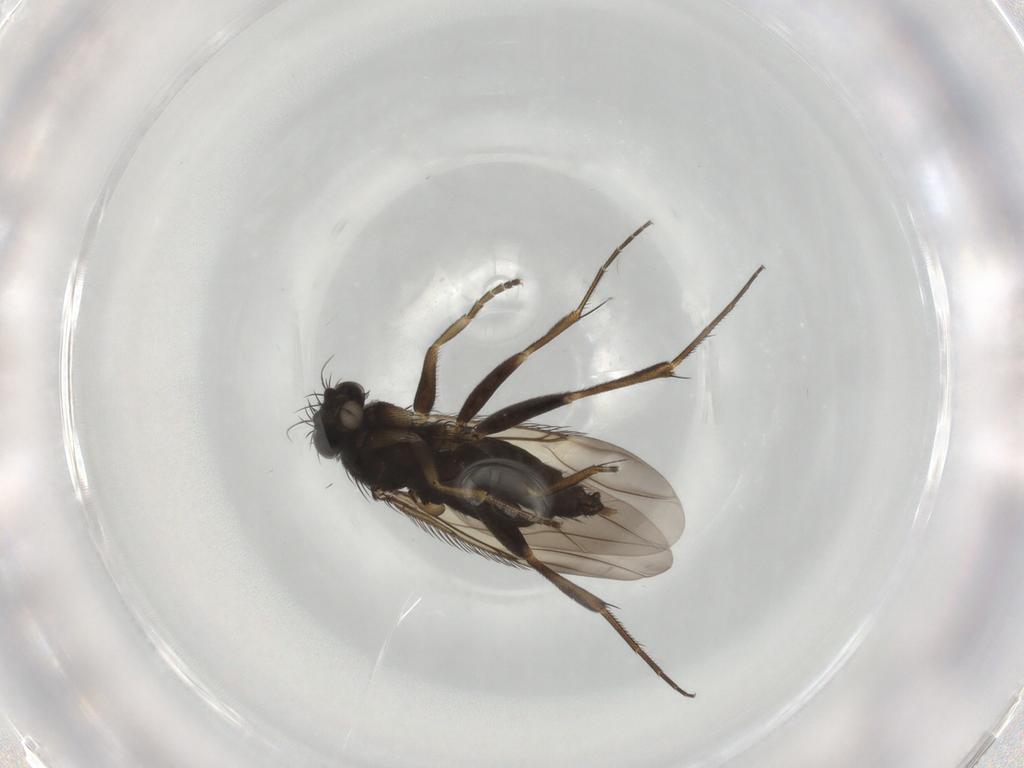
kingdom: Animalia
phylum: Arthropoda
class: Insecta
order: Diptera
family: Phoridae
